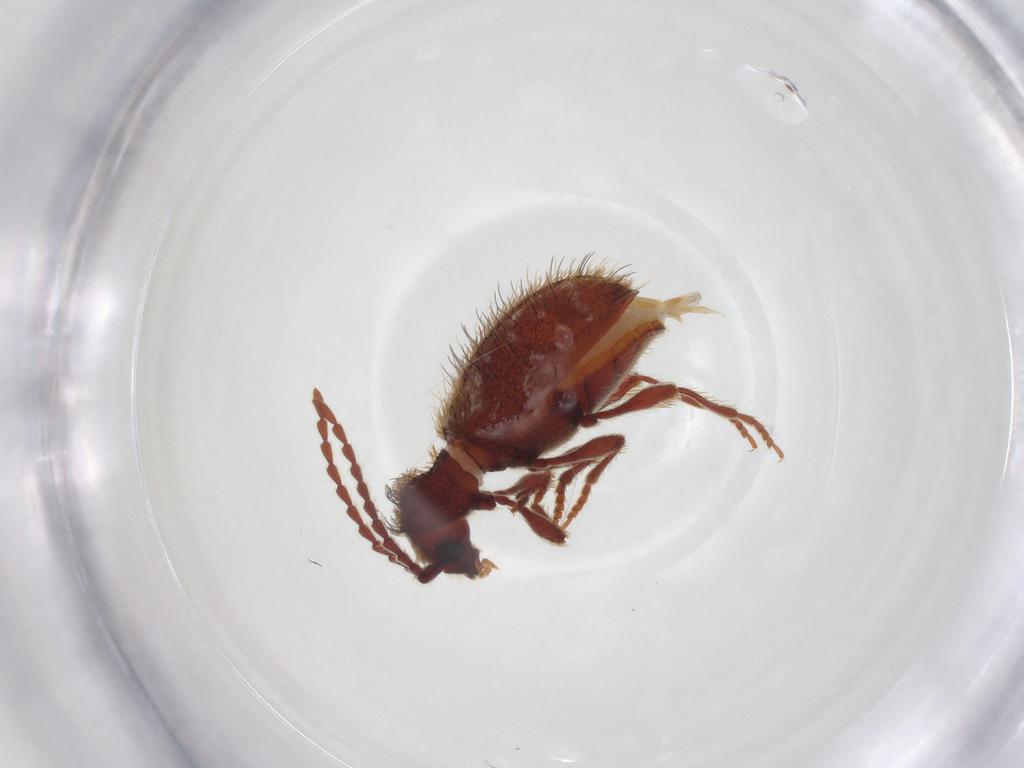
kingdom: Animalia
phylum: Arthropoda
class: Insecta
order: Coleoptera
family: Ptinidae
